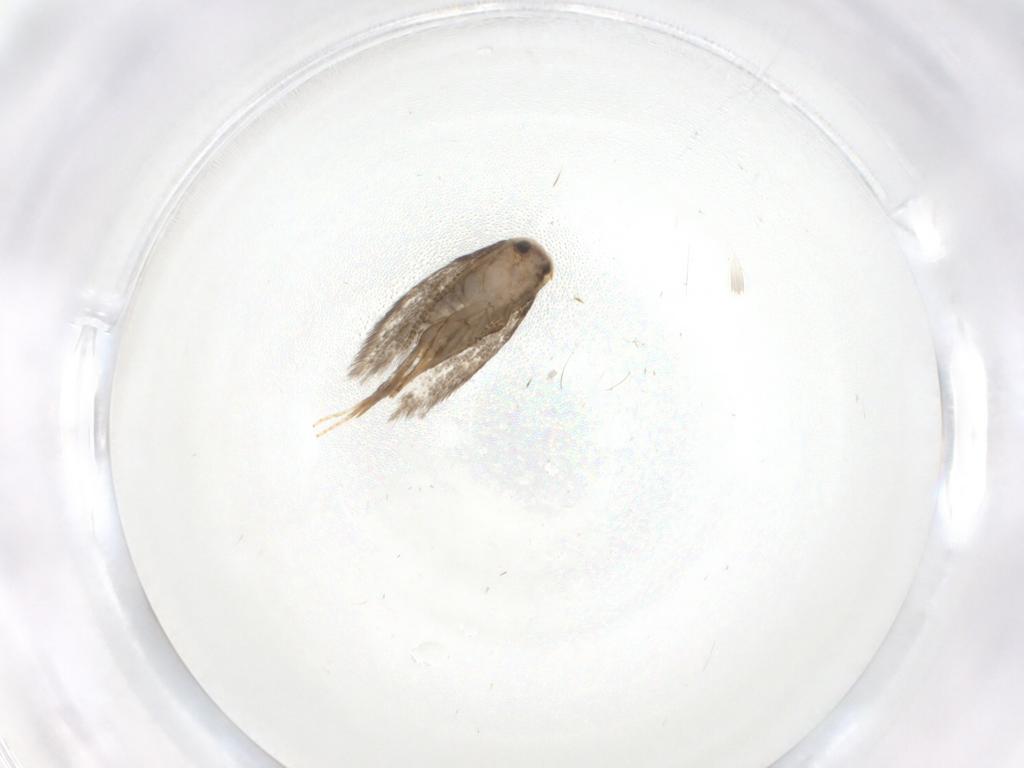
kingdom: Animalia
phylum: Arthropoda
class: Insecta
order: Lepidoptera
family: Nepticulidae
